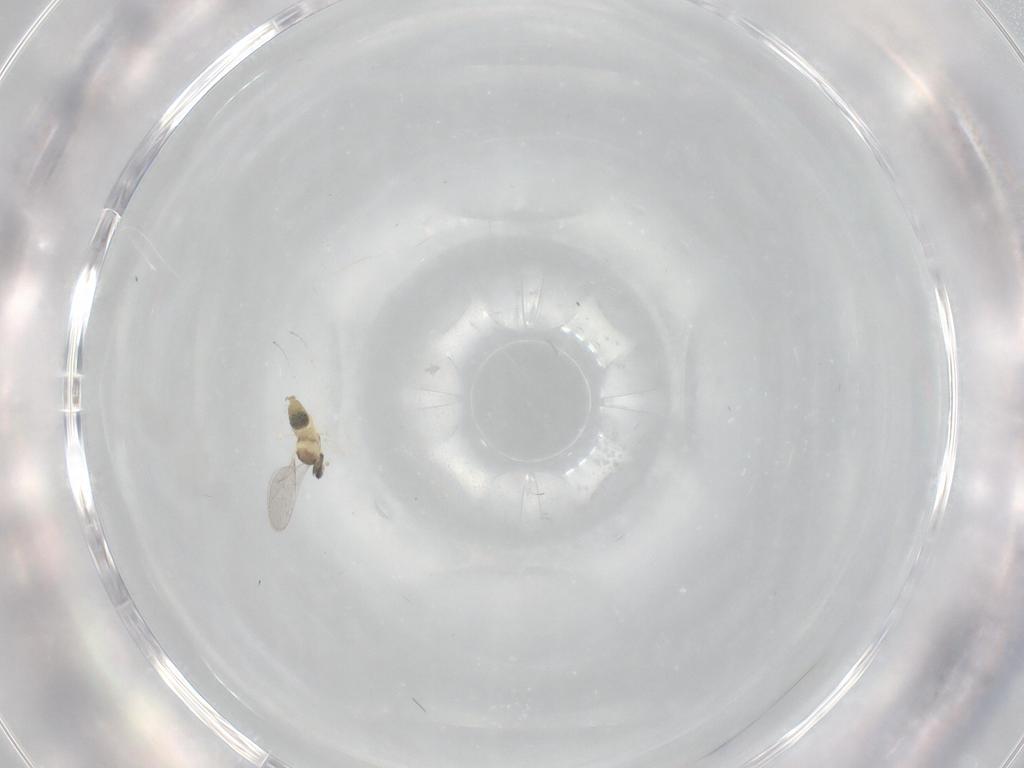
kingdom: Animalia
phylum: Arthropoda
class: Insecta
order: Diptera
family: Cecidomyiidae
